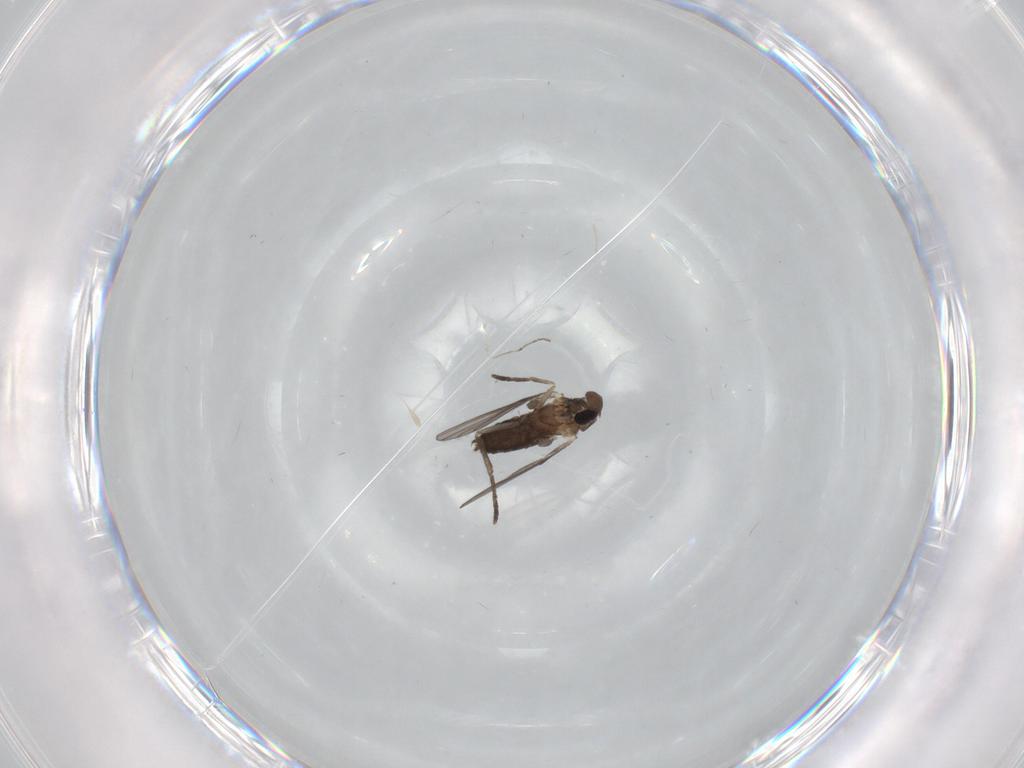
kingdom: Animalia
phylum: Arthropoda
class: Insecta
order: Diptera
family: Cecidomyiidae
